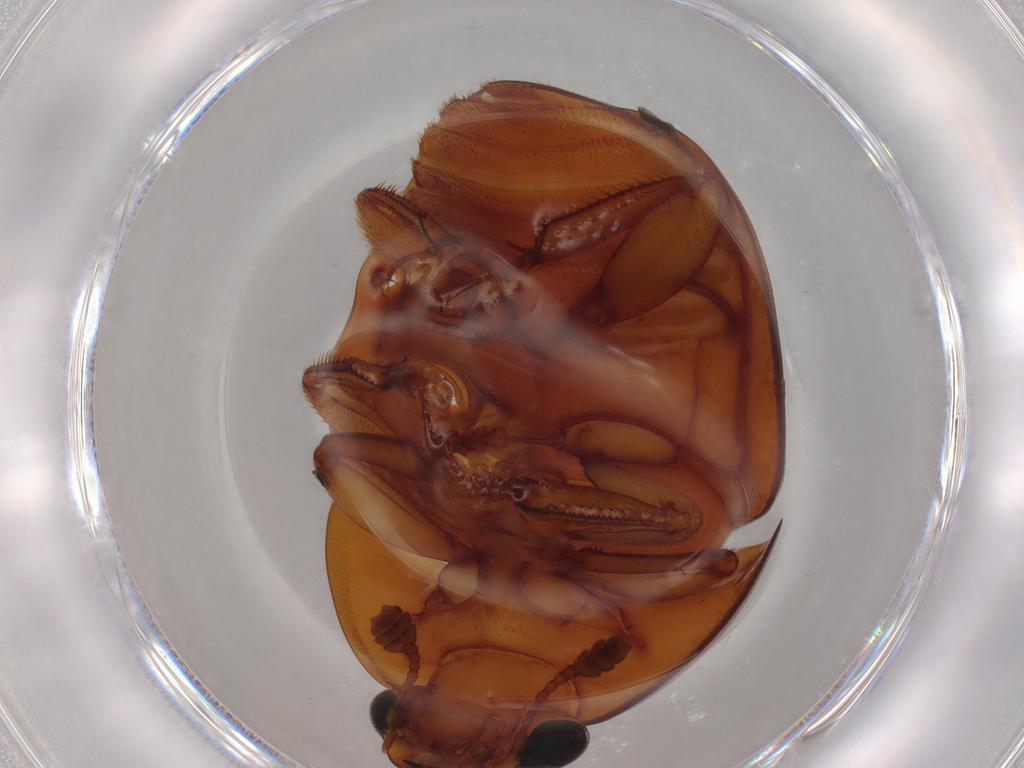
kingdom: Animalia
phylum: Arthropoda
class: Insecta
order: Coleoptera
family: Nitidulidae
